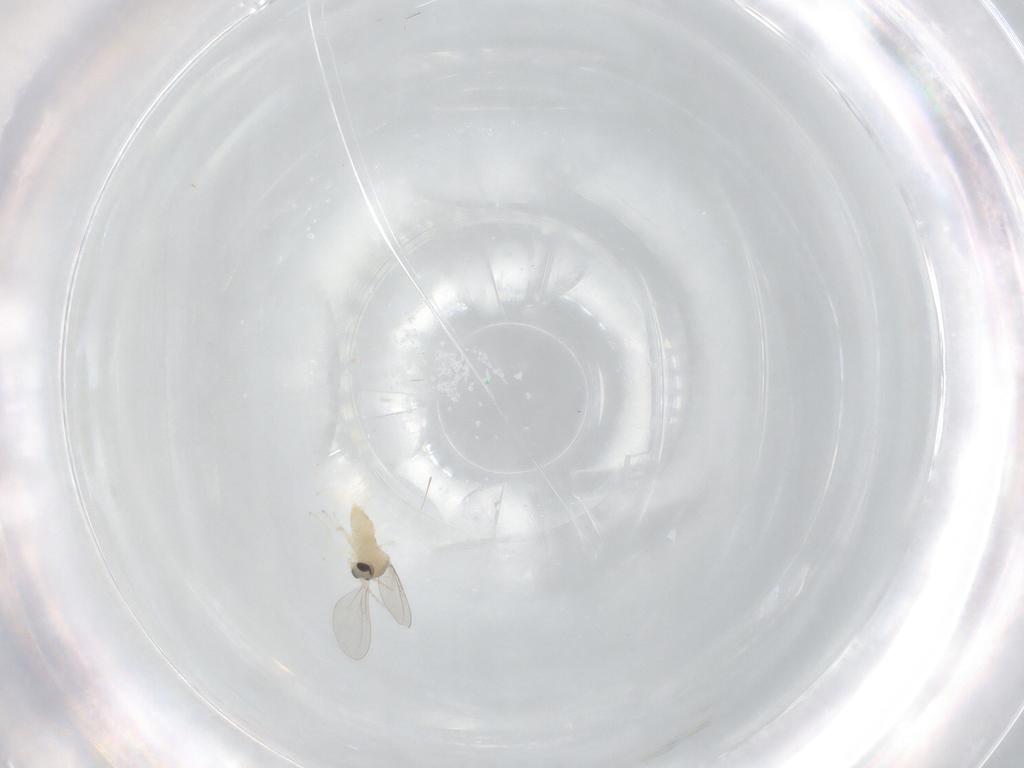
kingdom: Animalia
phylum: Arthropoda
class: Insecta
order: Diptera
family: Cecidomyiidae
